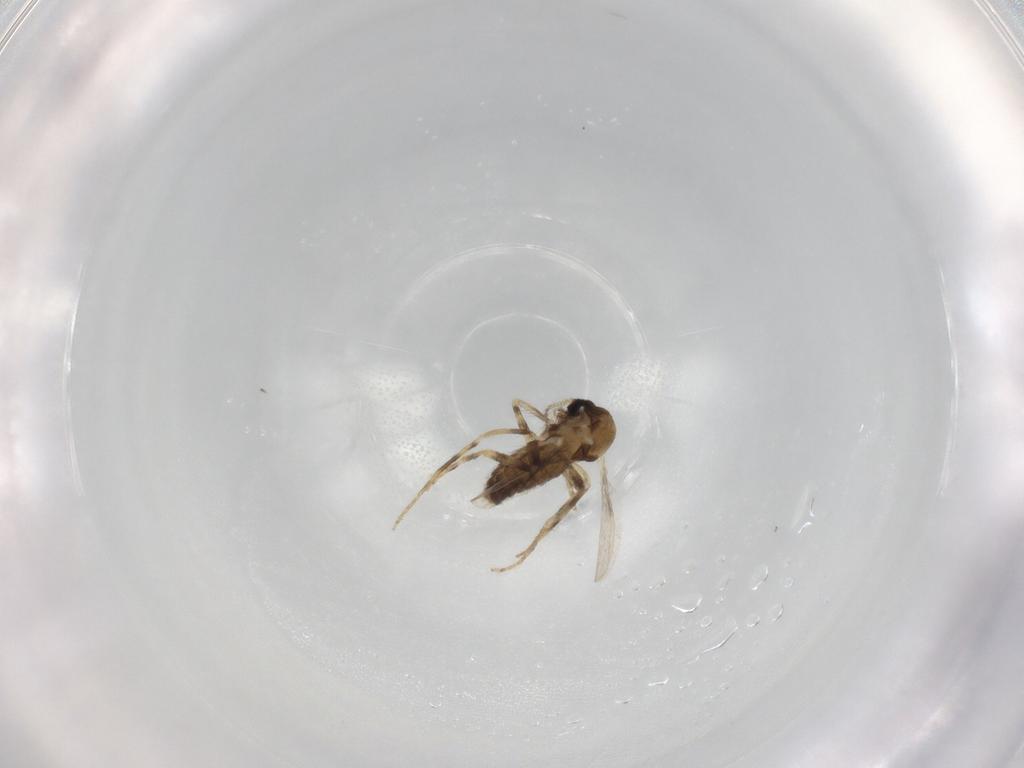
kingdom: Animalia
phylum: Arthropoda
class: Insecta
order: Diptera
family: Ceratopogonidae
